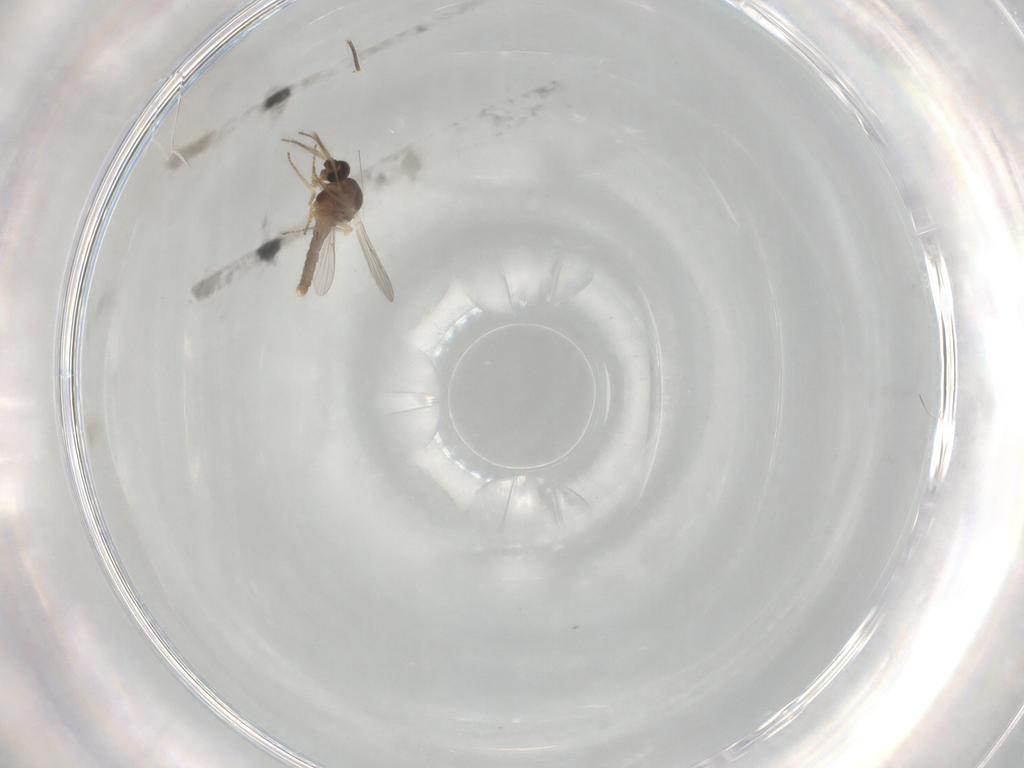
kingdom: Animalia
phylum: Arthropoda
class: Insecta
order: Diptera
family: Ceratopogonidae
